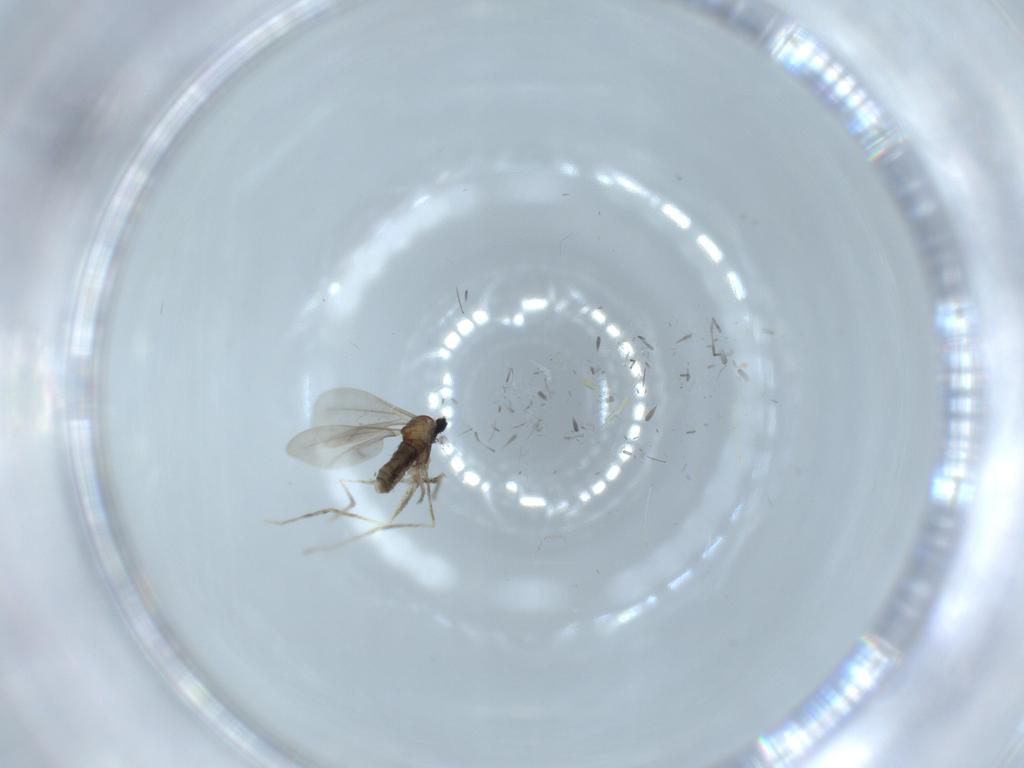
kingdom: Animalia
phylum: Arthropoda
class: Insecta
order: Diptera
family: Cecidomyiidae
